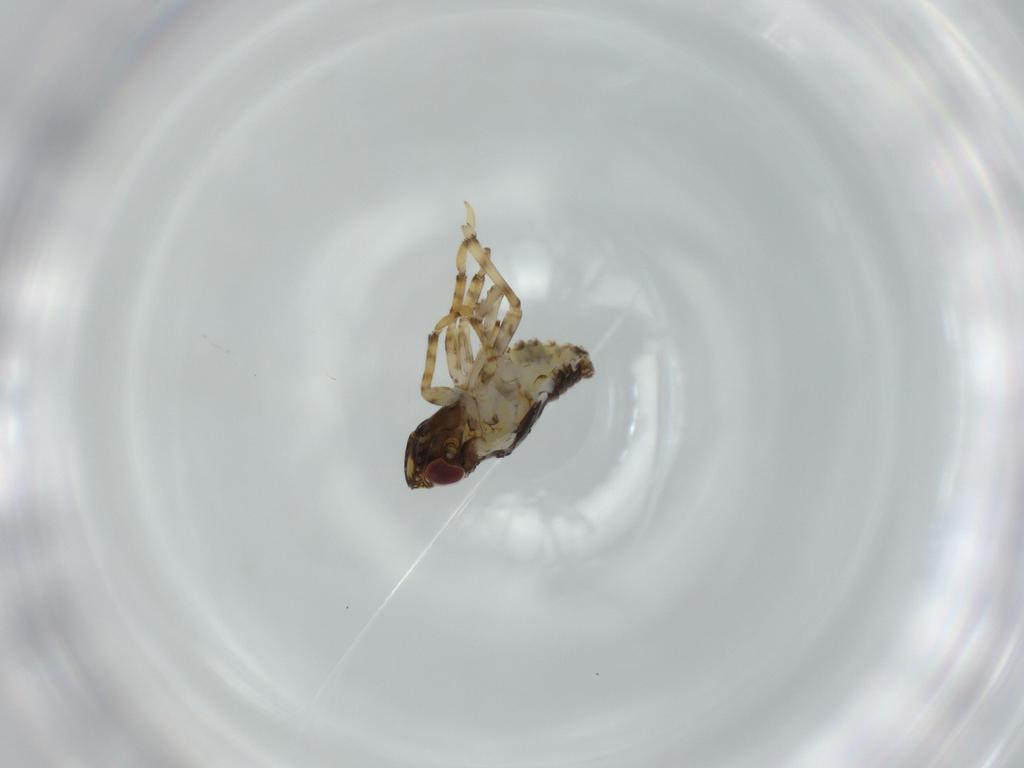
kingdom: Animalia
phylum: Arthropoda
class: Insecta
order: Hemiptera
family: Issidae
